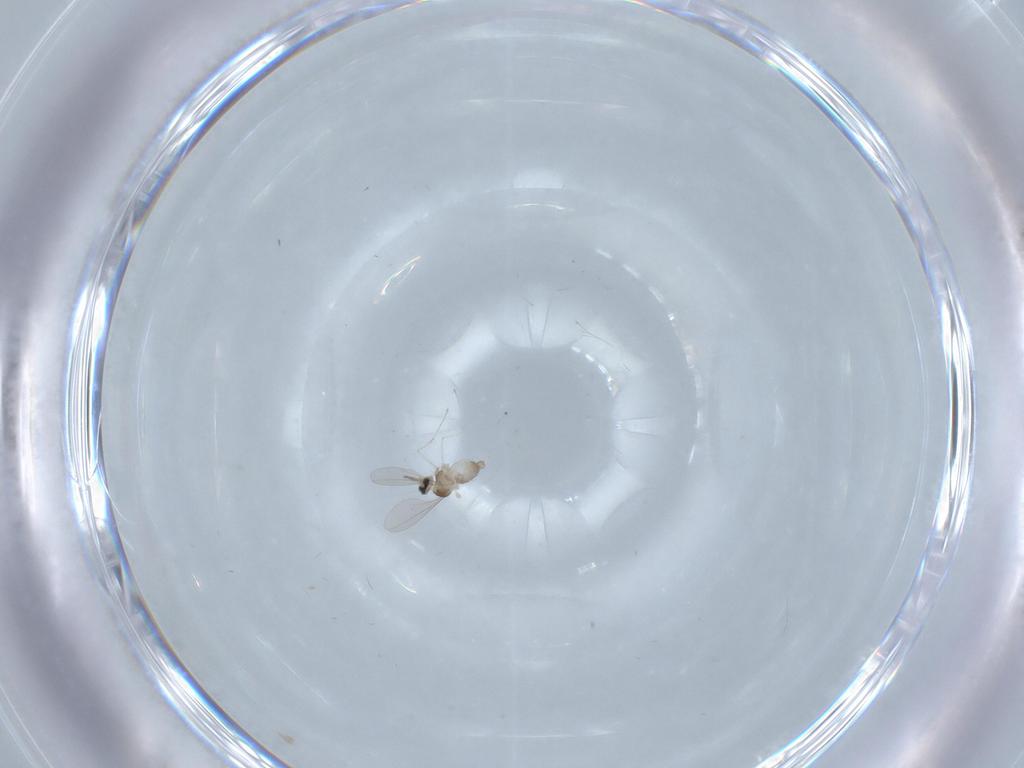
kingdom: Animalia
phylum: Arthropoda
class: Insecta
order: Diptera
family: Cecidomyiidae
